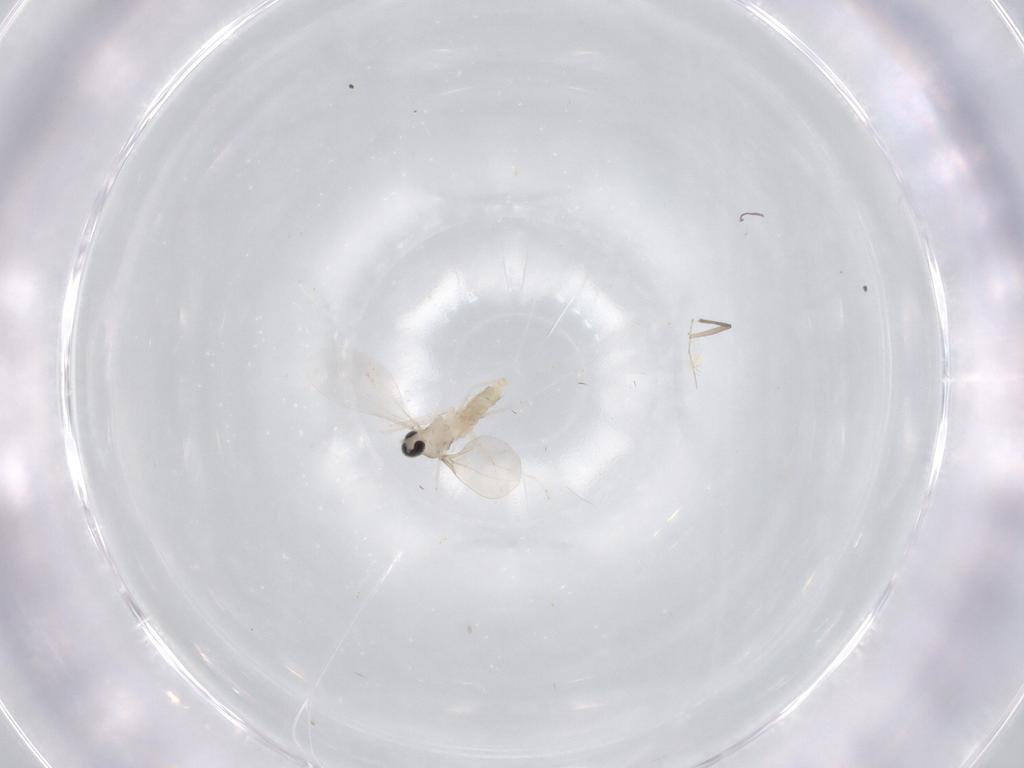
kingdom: Animalia
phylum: Arthropoda
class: Insecta
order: Diptera
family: Cecidomyiidae
